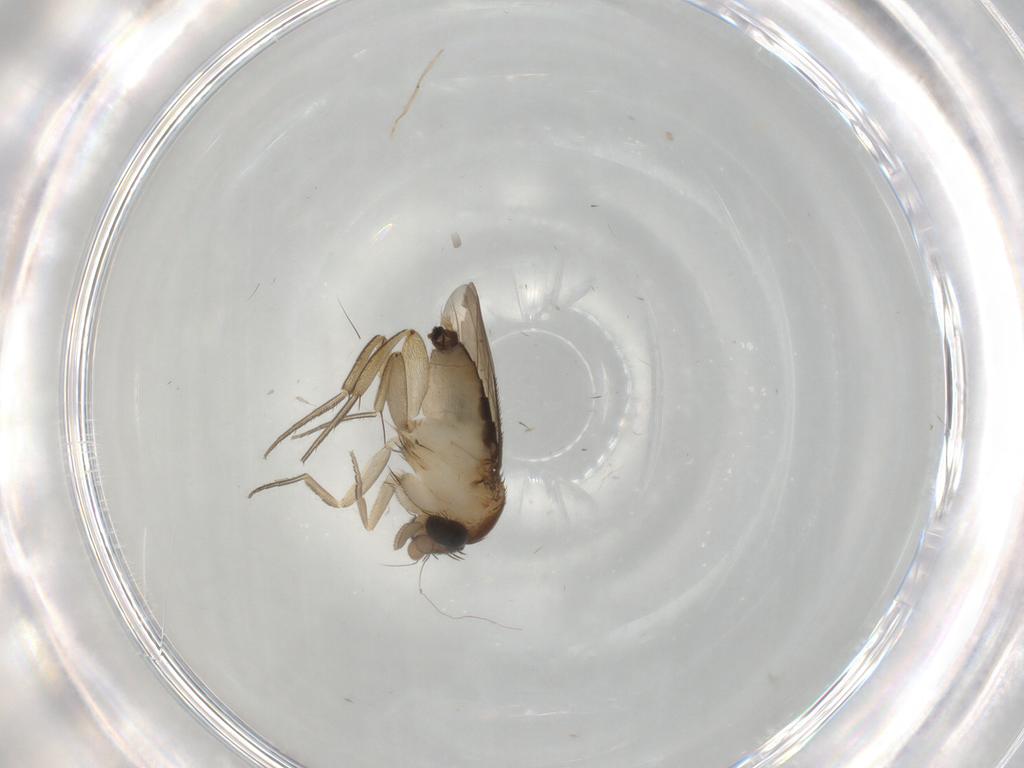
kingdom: Animalia
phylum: Arthropoda
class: Insecta
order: Diptera
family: Phoridae
